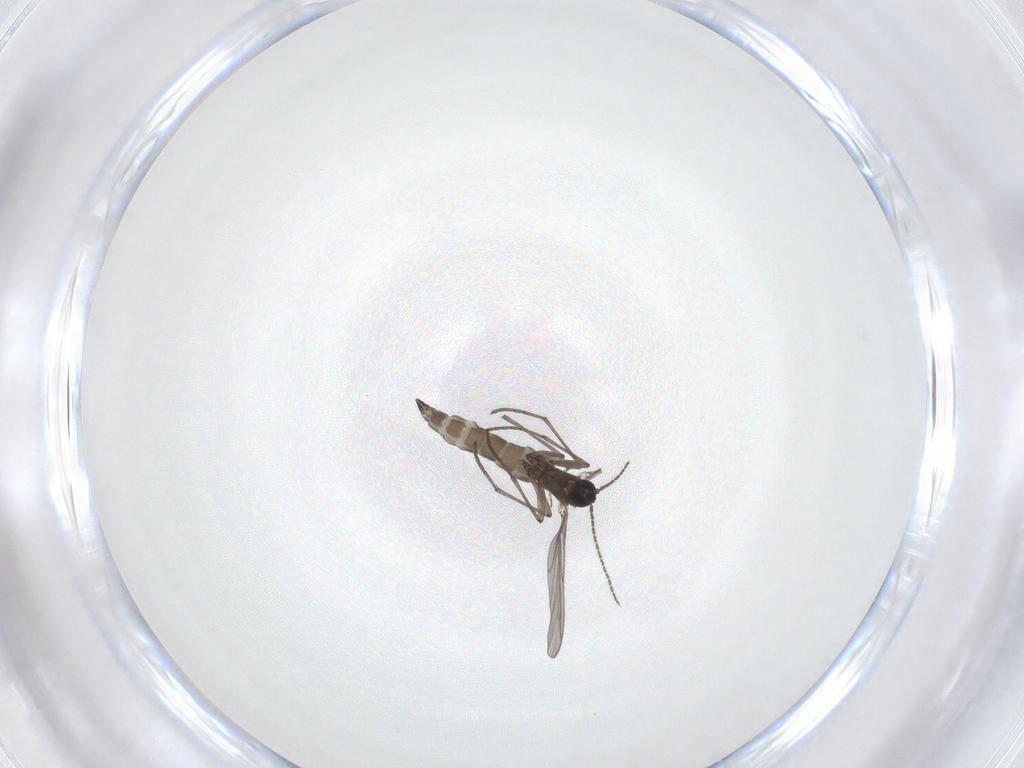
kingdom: Animalia
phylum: Arthropoda
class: Insecta
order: Diptera
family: Sciaridae
